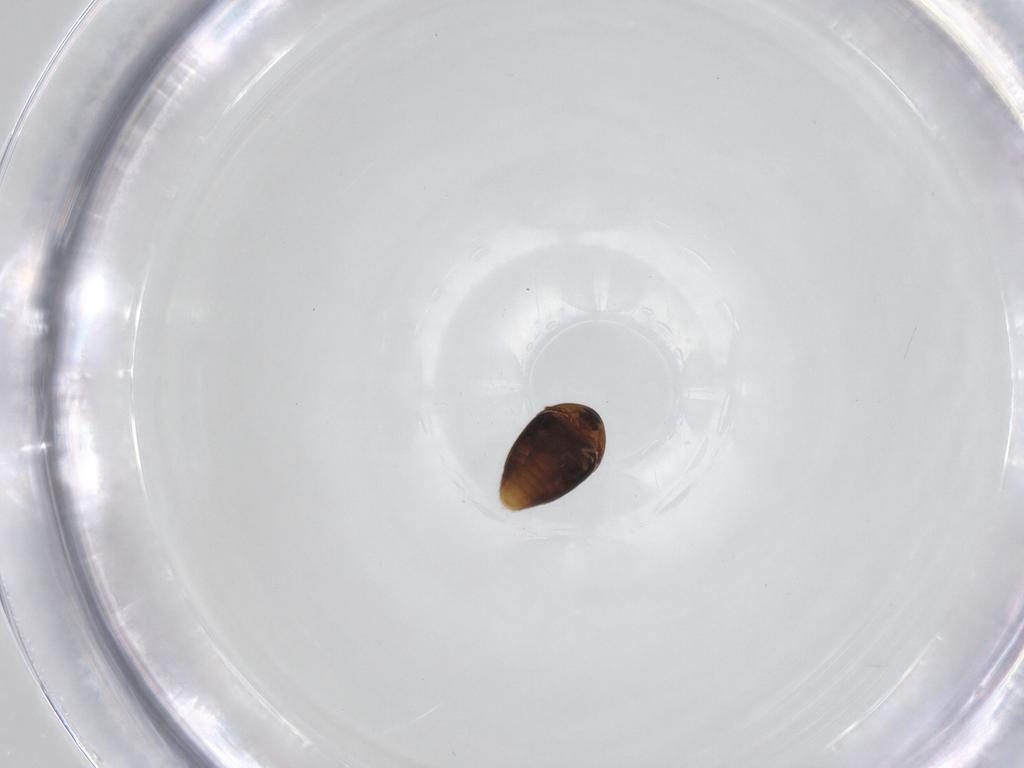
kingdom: Animalia
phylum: Arthropoda
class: Insecta
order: Coleoptera
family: Corylophidae
